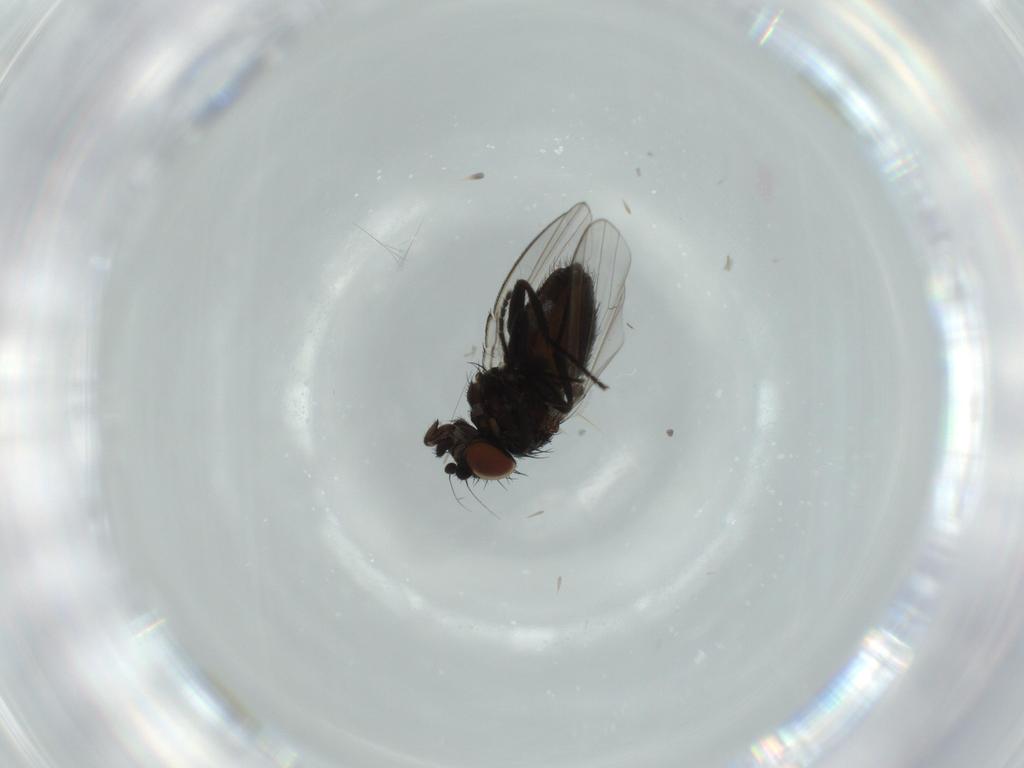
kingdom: Animalia
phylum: Arthropoda
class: Insecta
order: Diptera
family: Milichiidae
